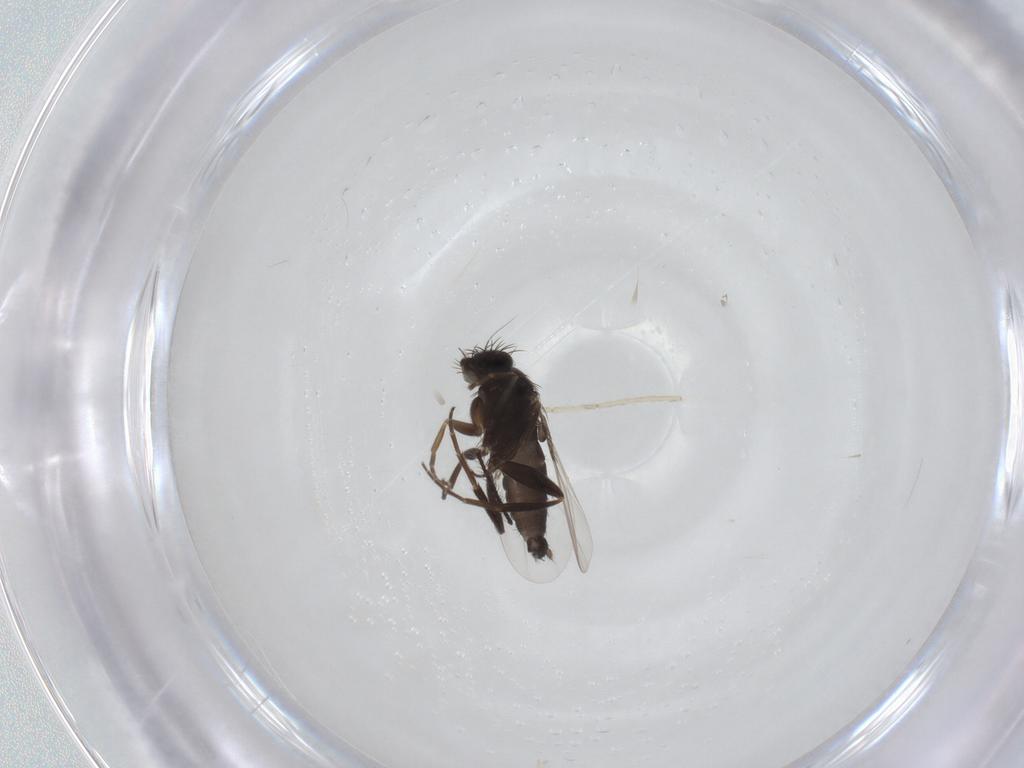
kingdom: Animalia
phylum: Arthropoda
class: Insecta
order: Diptera
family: Phoridae
